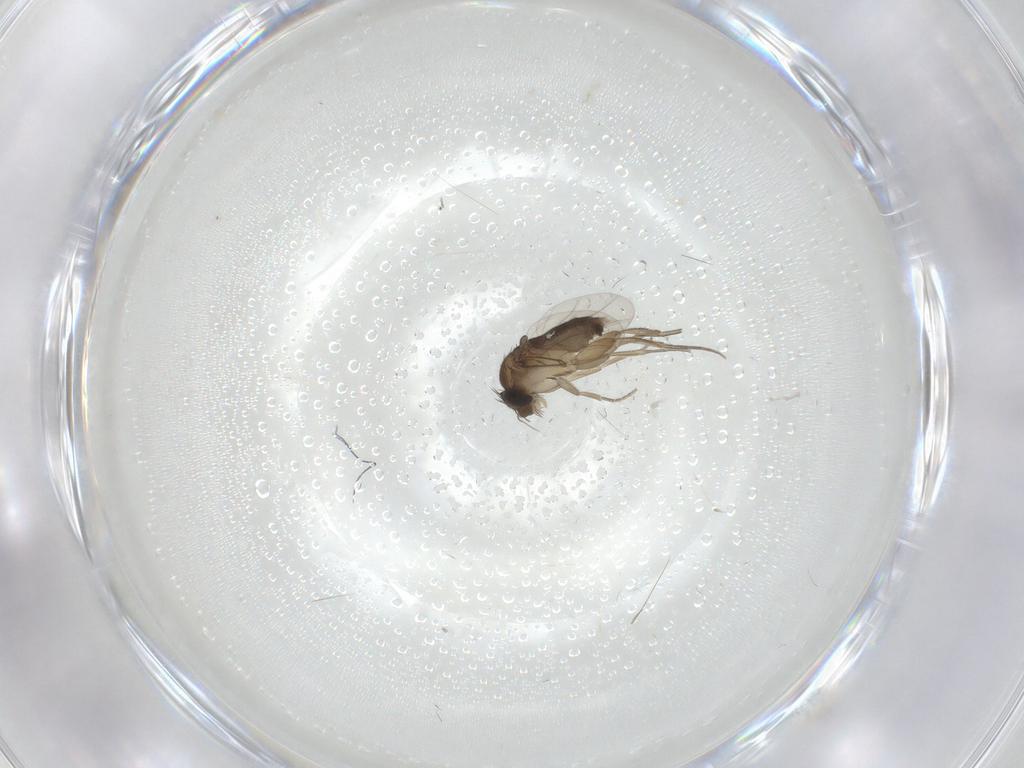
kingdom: Animalia
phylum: Arthropoda
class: Insecta
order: Diptera
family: Phoridae
